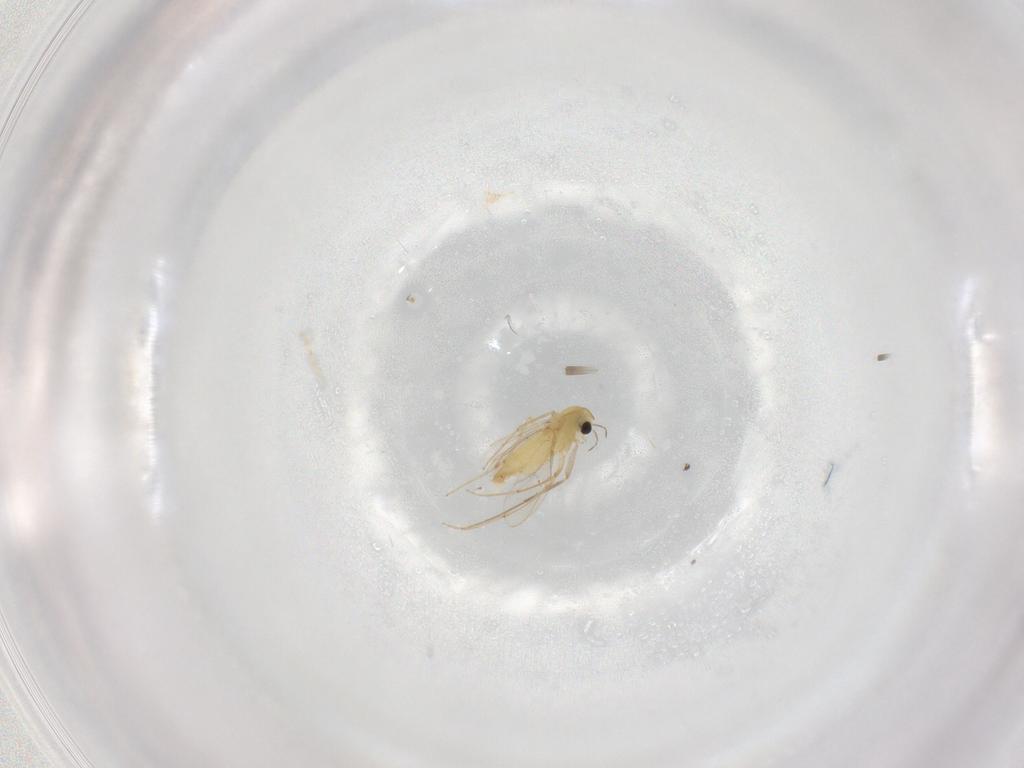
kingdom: Animalia
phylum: Arthropoda
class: Insecta
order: Diptera
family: Chironomidae
